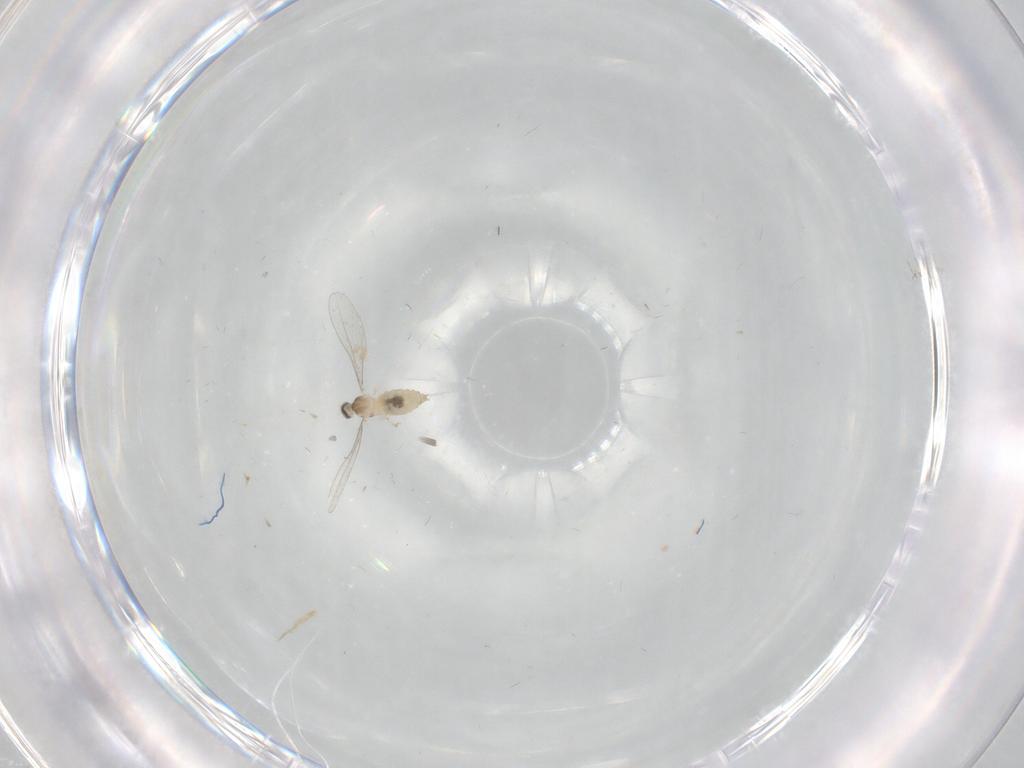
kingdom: Animalia
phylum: Arthropoda
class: Insecta
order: Diptera
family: Cecidomyiidae
